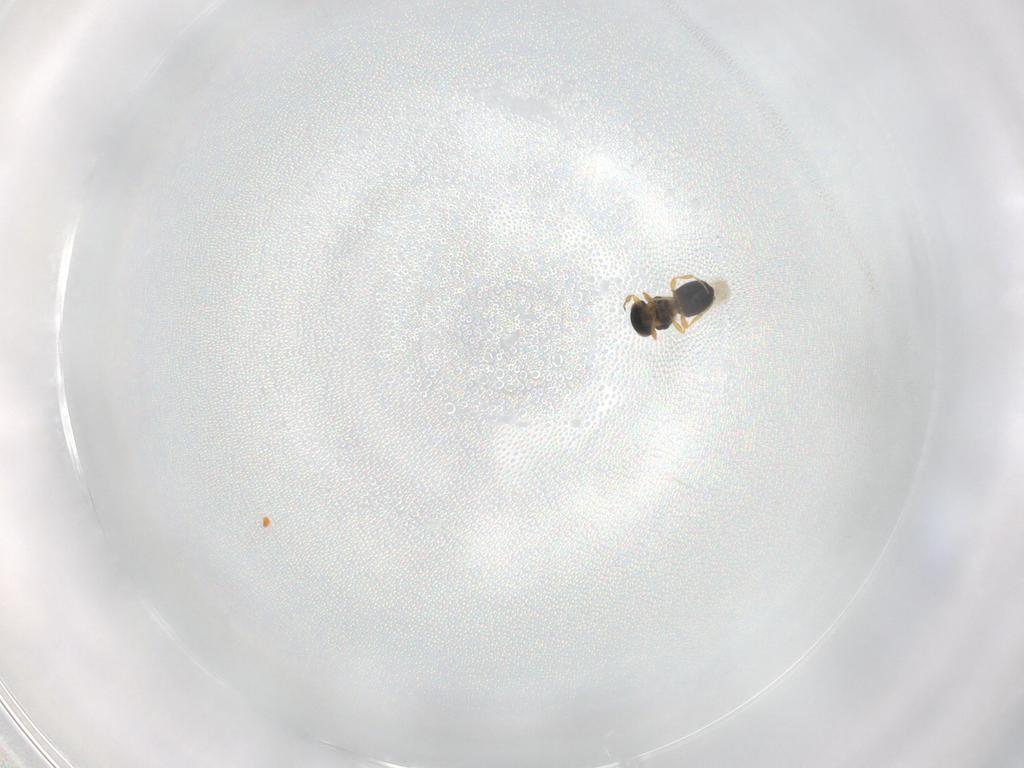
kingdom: Animalia
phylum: Arthropoda
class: Insecta
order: Hymenoptera
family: Platygastridae
